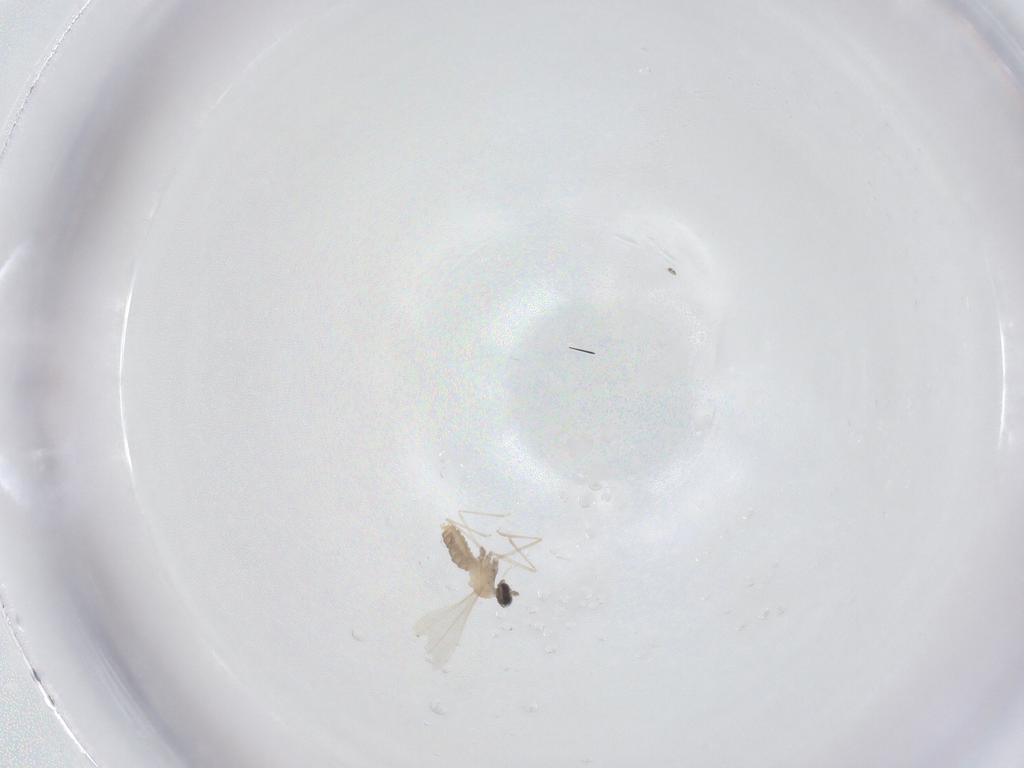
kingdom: Animalia
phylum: Arthropoda
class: Insecta
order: Diptera
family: Cecidomyiidae
